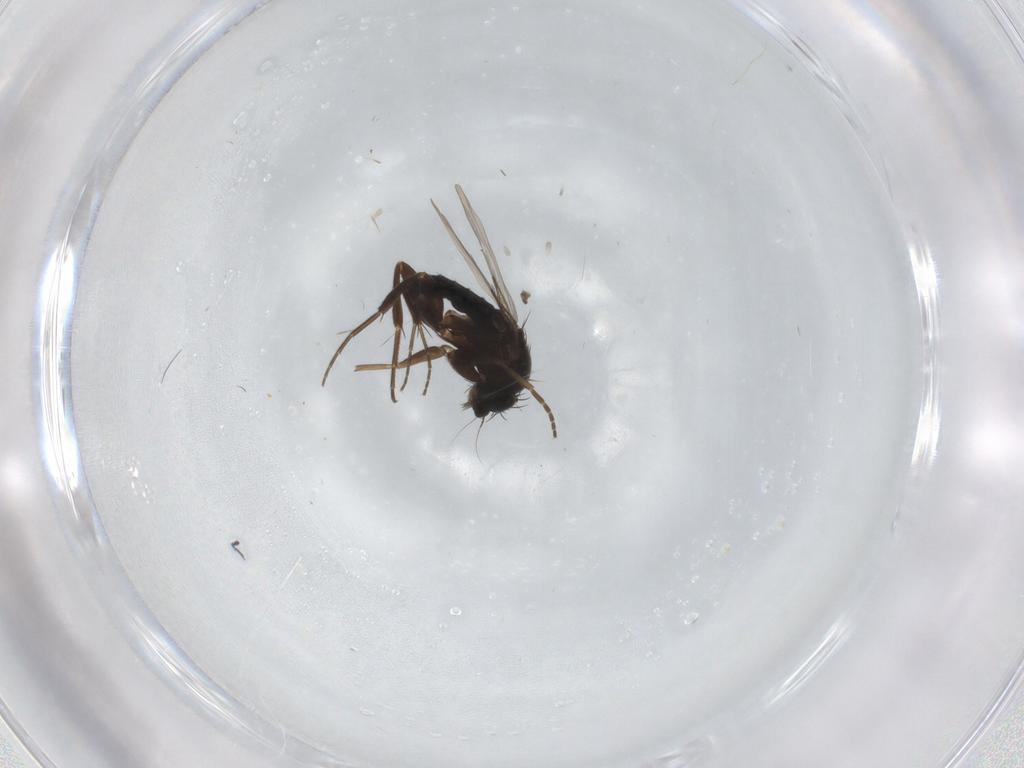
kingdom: Animalia
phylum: Arthropoda
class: Insecta
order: Diptera
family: Phoridae
